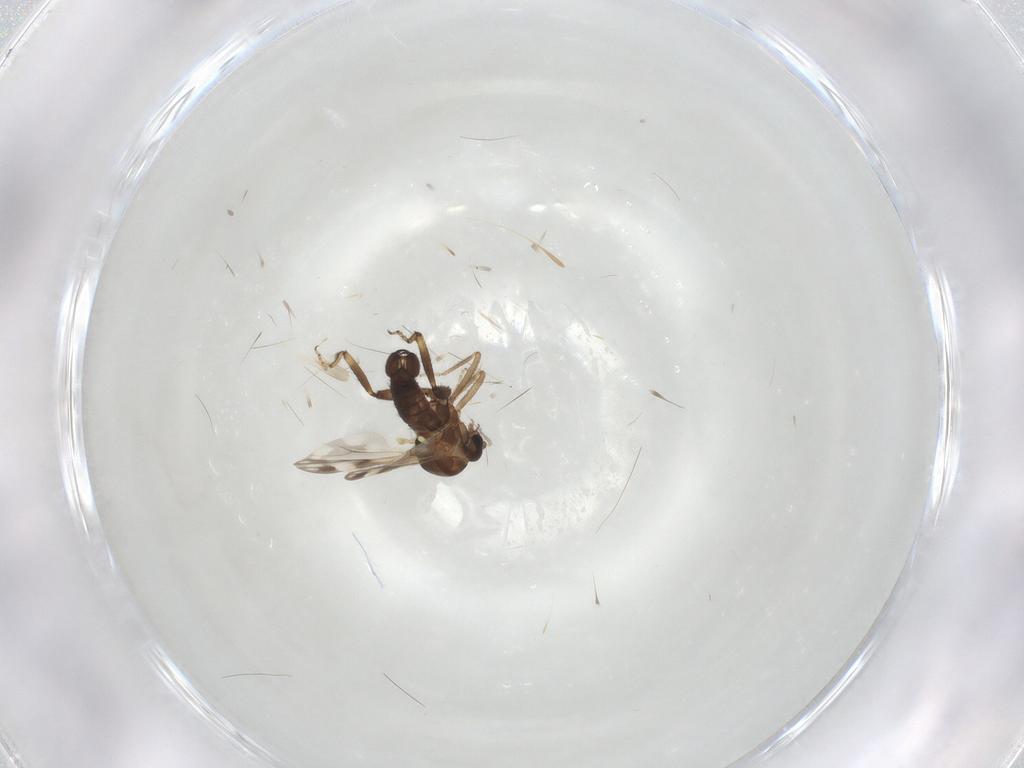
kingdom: Animalia
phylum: Arthropoda
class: Insecta
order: Diptera
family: Ceratopogonidae
